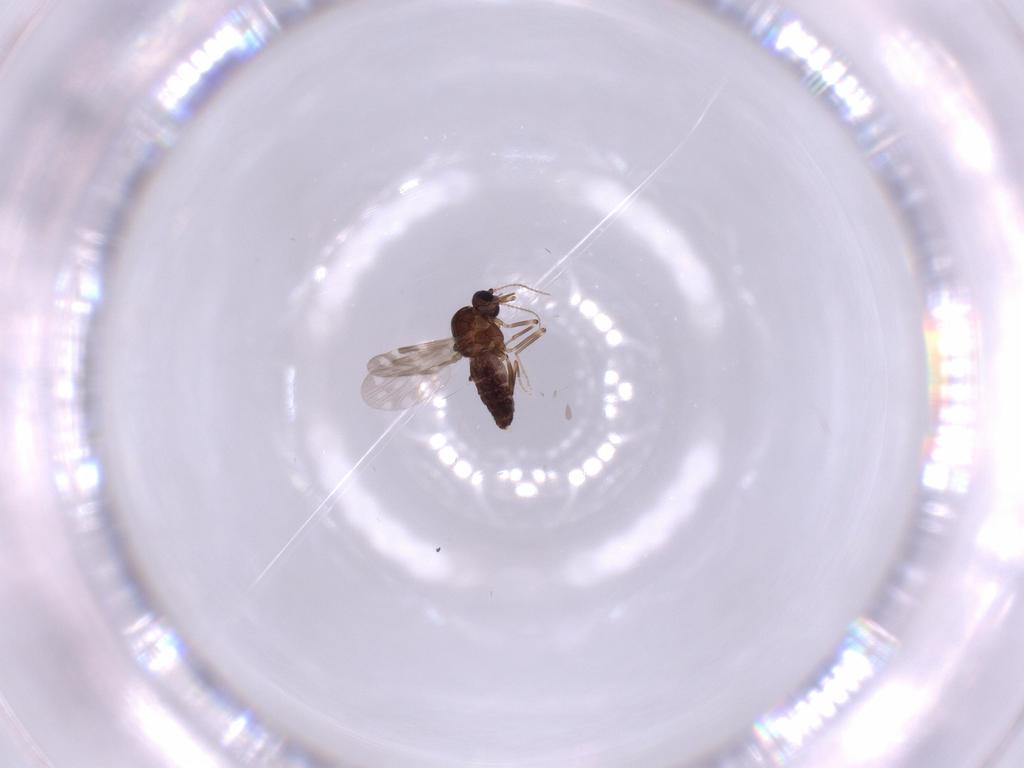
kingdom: Animalia
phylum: Arthropoda
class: Insecta
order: Diptera
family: Ceratopogonidae
